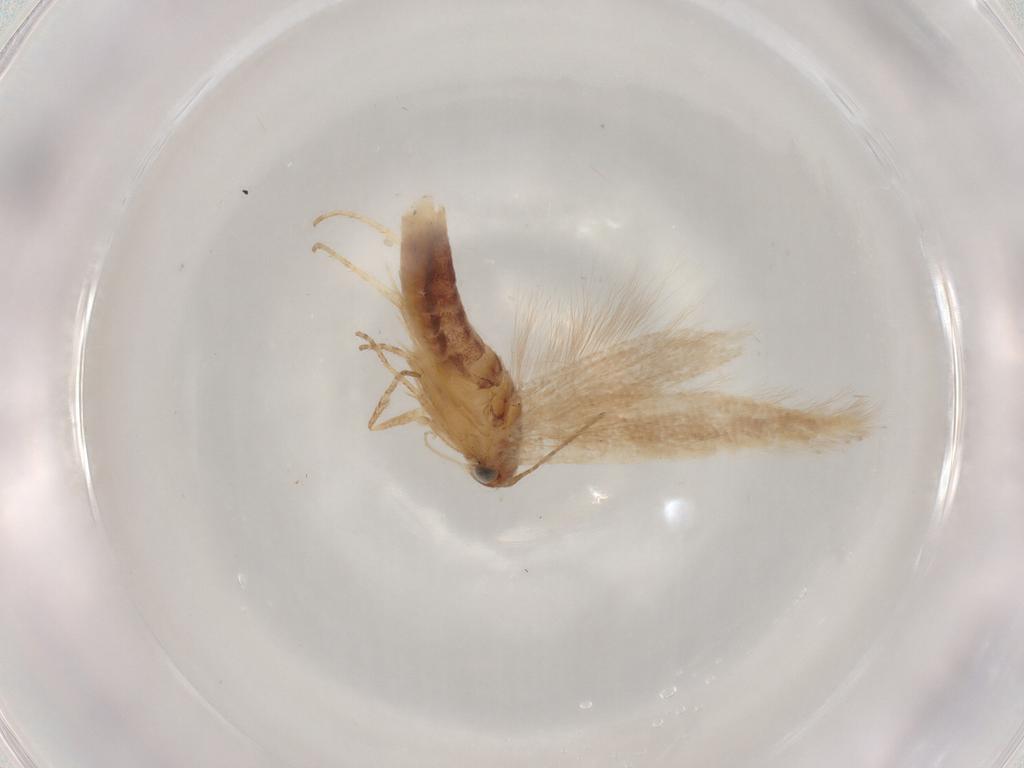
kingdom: Animalia
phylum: Arthropoda
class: Insecta
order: Lepidoptera
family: Gelechiidae
